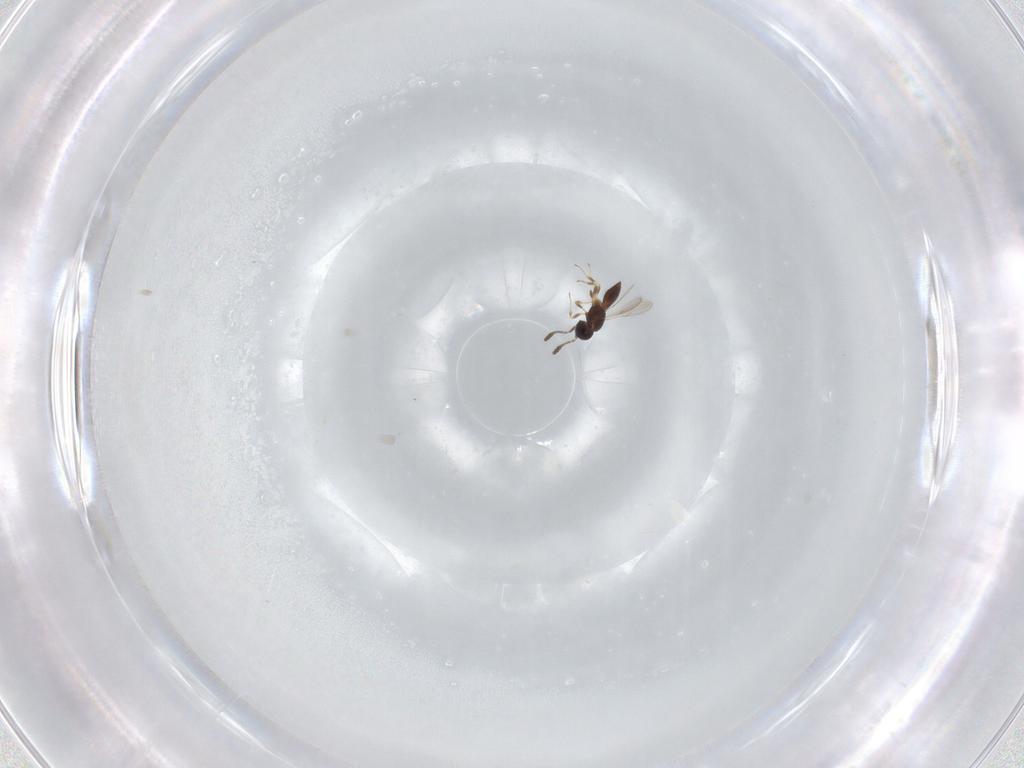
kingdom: Animalia
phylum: Arthropoda
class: Insecta
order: Hymenoptera
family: Scelionidae
